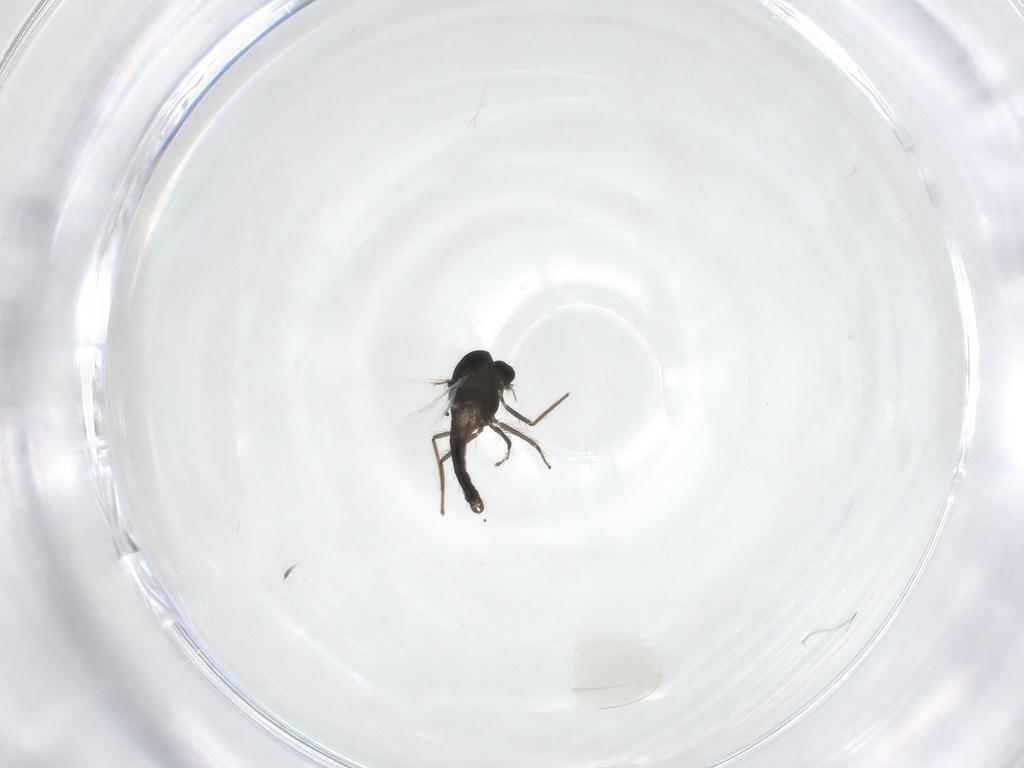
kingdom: Animalia
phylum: Arthropoda
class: Insecta
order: Diptera
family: Chironomidae
